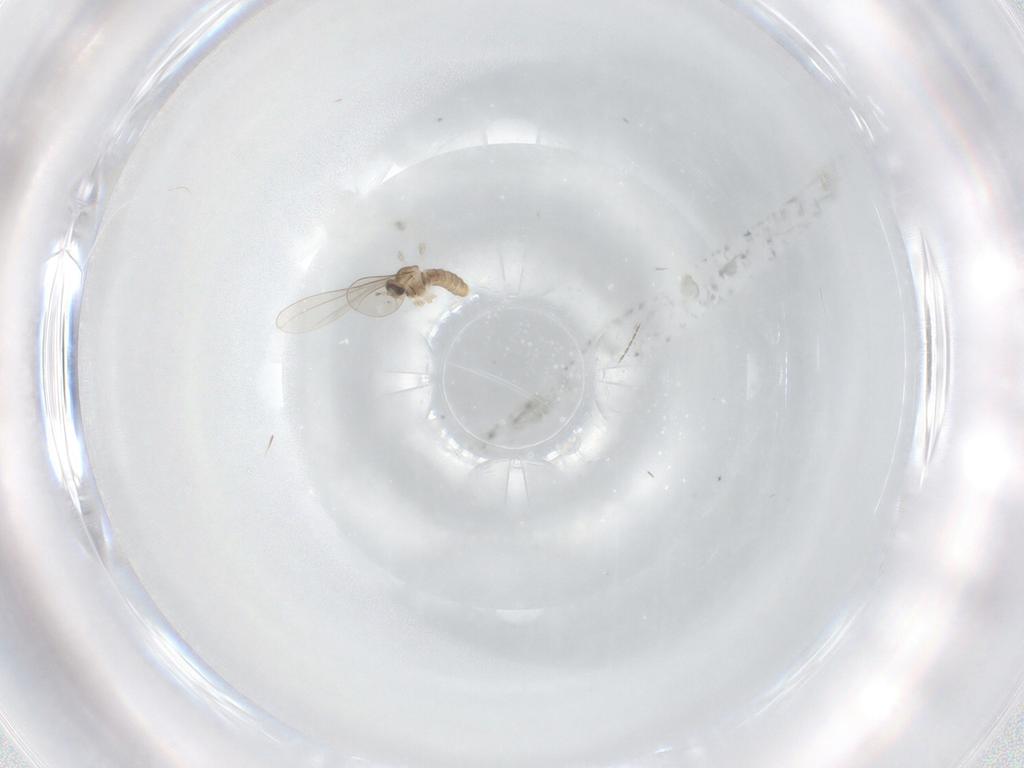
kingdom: Animalia
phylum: Arthropoda
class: Insecta
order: Diptera
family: Cecidomyiidae
